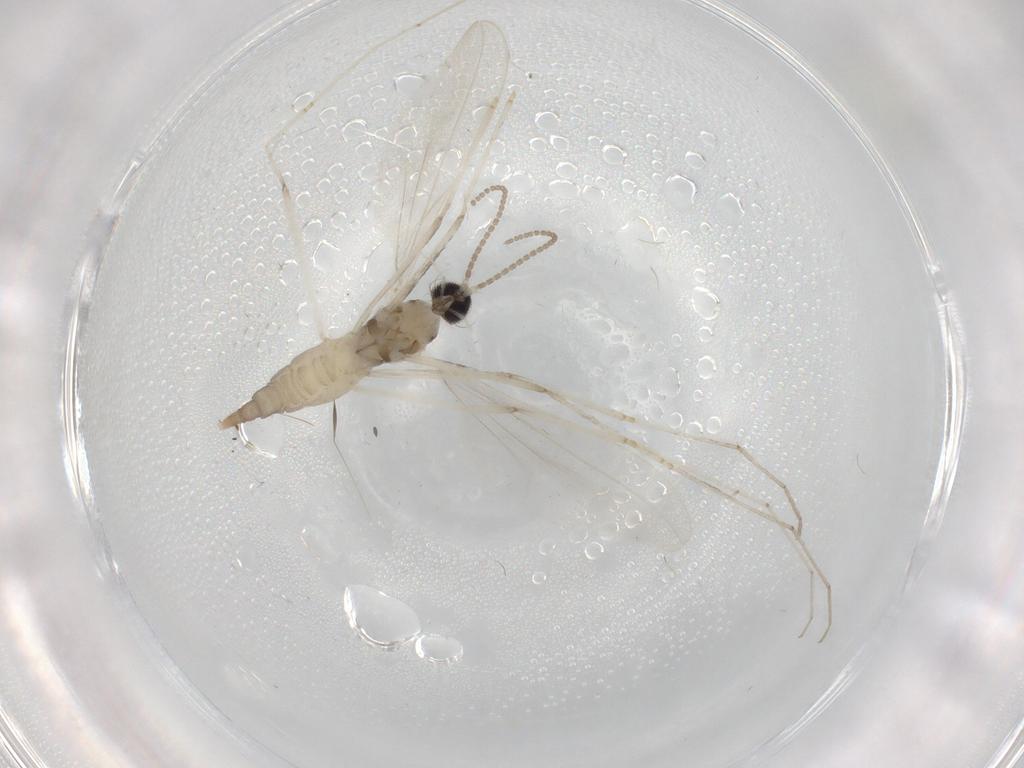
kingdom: Animalia
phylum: Arthropoda
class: Insecta
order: Diptera
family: Cecidomyiidae
